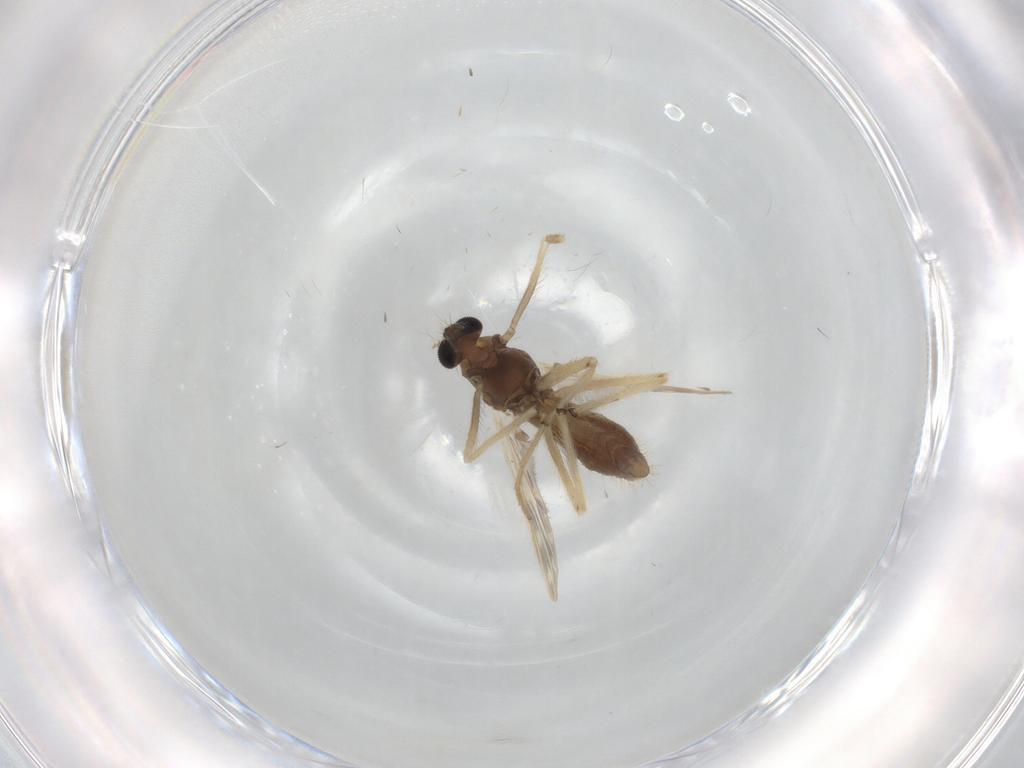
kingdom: Animalia
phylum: Arthropoda
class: Insecta
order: Diptera
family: Chironomidae
